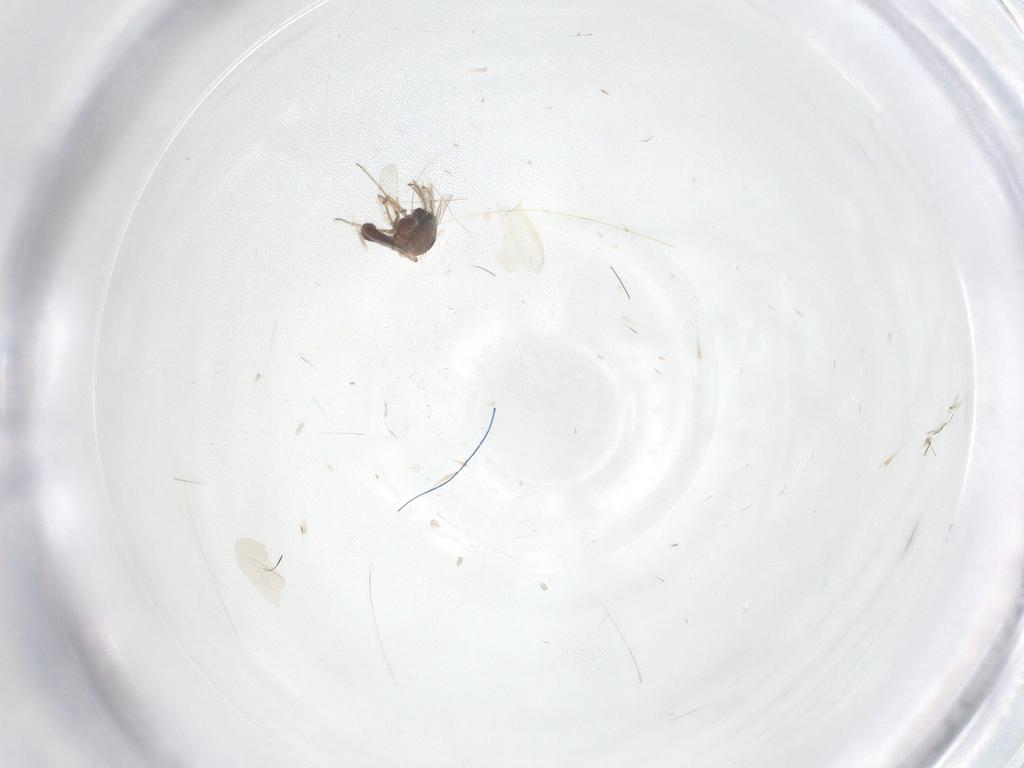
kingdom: Animalia
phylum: Arthropoda
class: Insecta
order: Diptera
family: Ceratopogonidae
